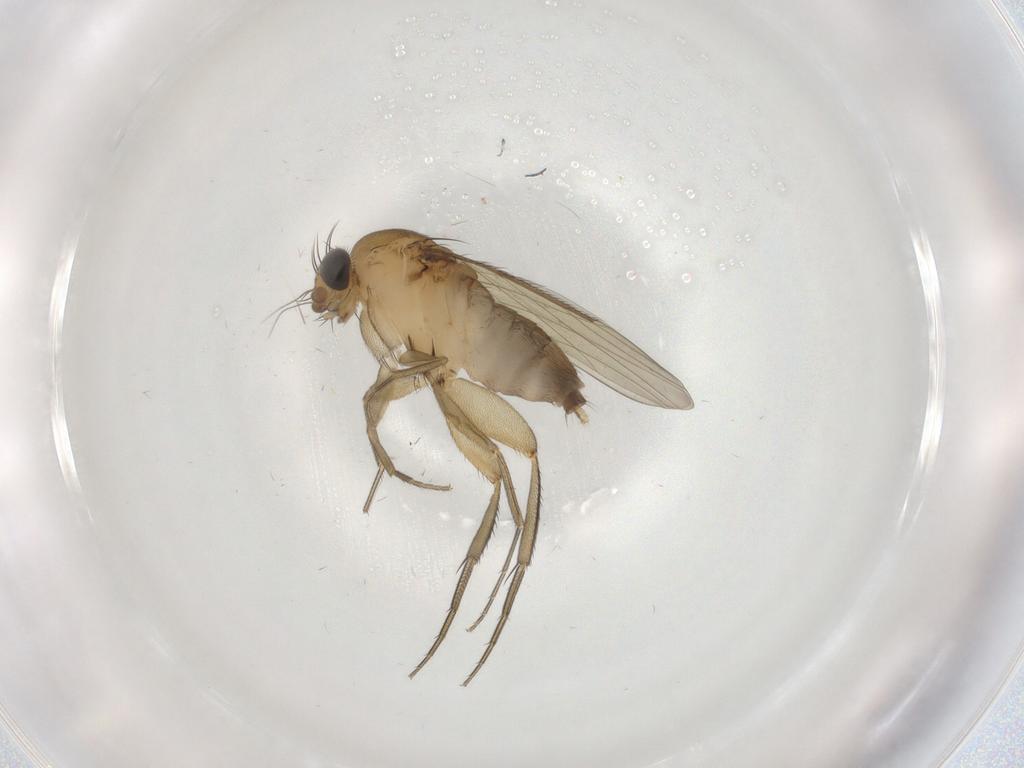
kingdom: Animalia
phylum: Arthropoda
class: Insecta
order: Diptera
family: Phoridae
